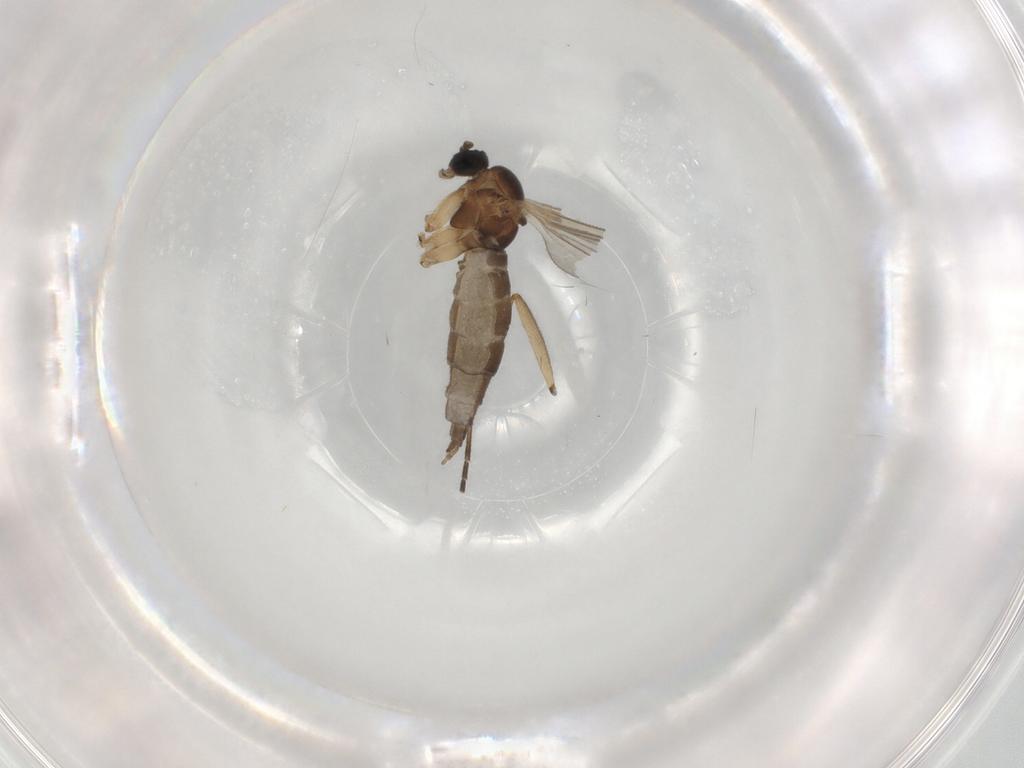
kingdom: Animalia
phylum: Arthropoda
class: Insecta
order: Diptera
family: Sciaridae
